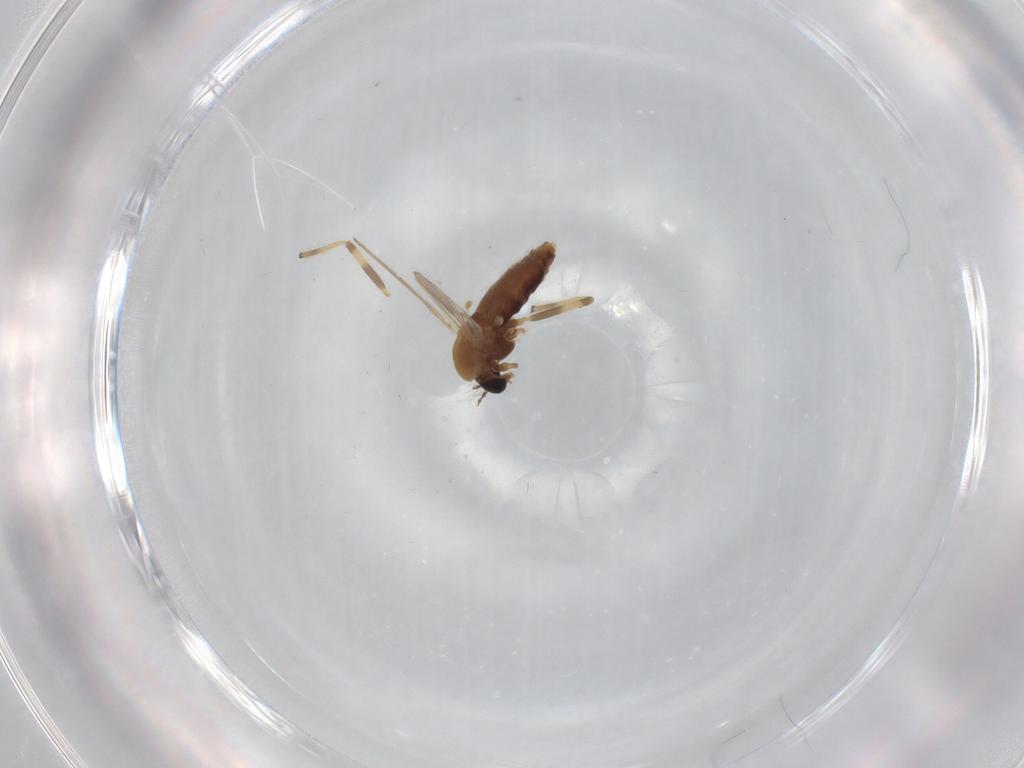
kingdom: Animalia
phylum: Arthropoda
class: Insecta
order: Diptera
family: Chironomidae
